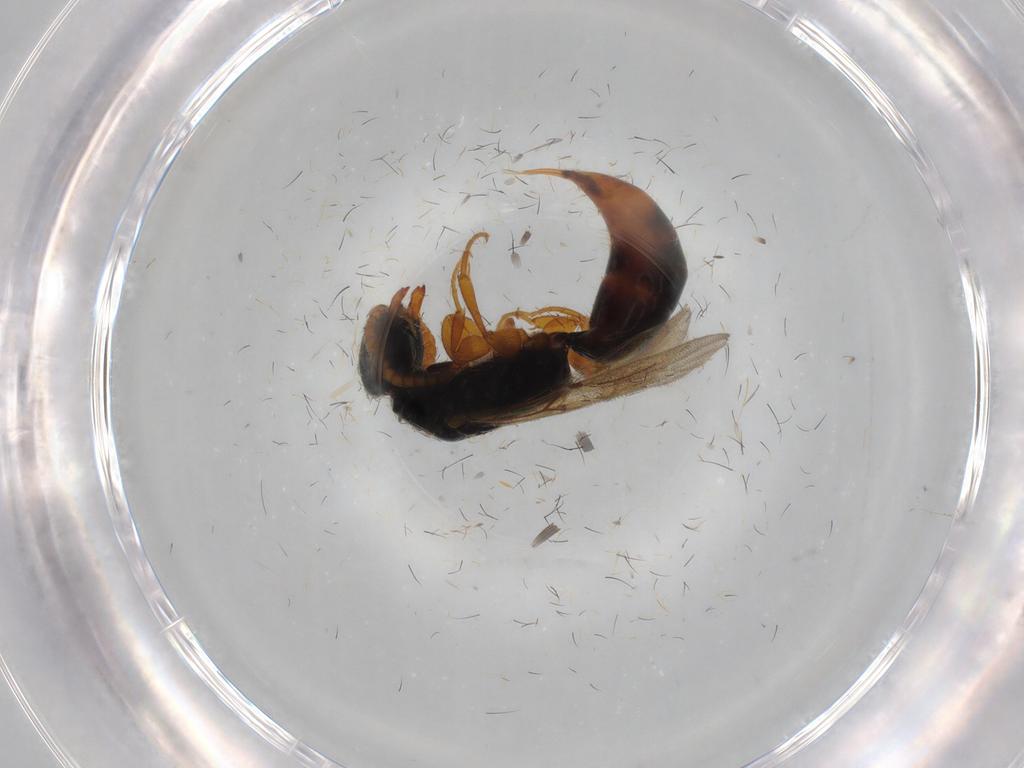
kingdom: Animalia
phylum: Arthropoda
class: Insecta
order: Hymenoptera
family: Bethylidae
